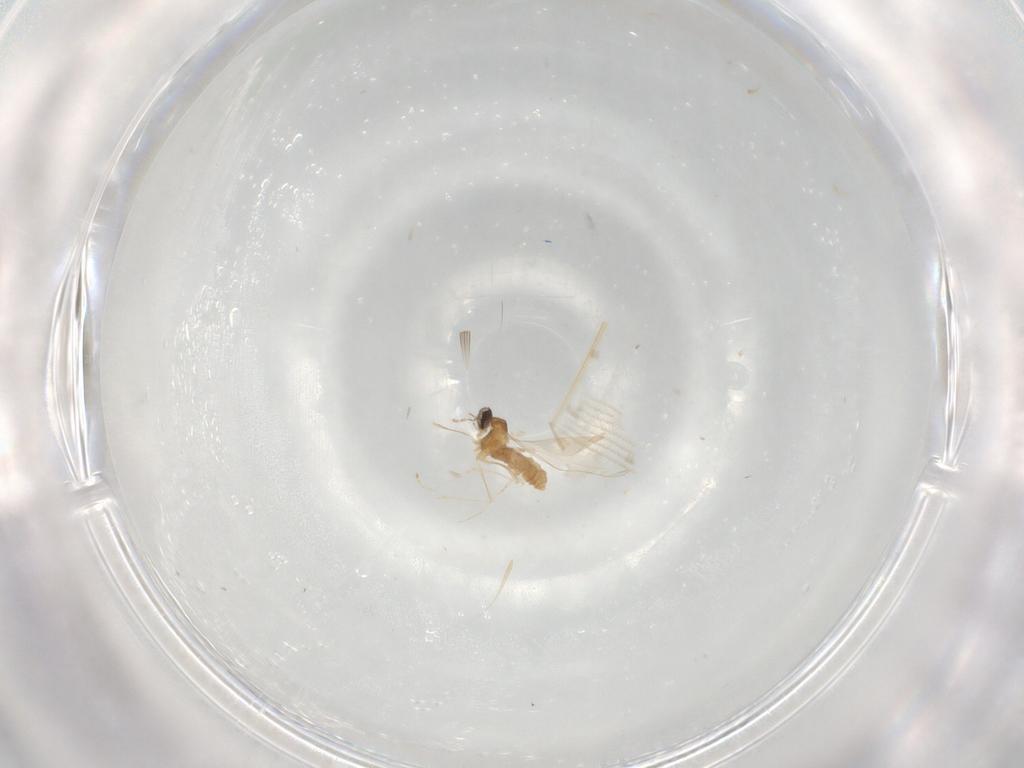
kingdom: Animalia
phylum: Arthropoda
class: Insecta
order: Diptera
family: Cecidomyiidae
